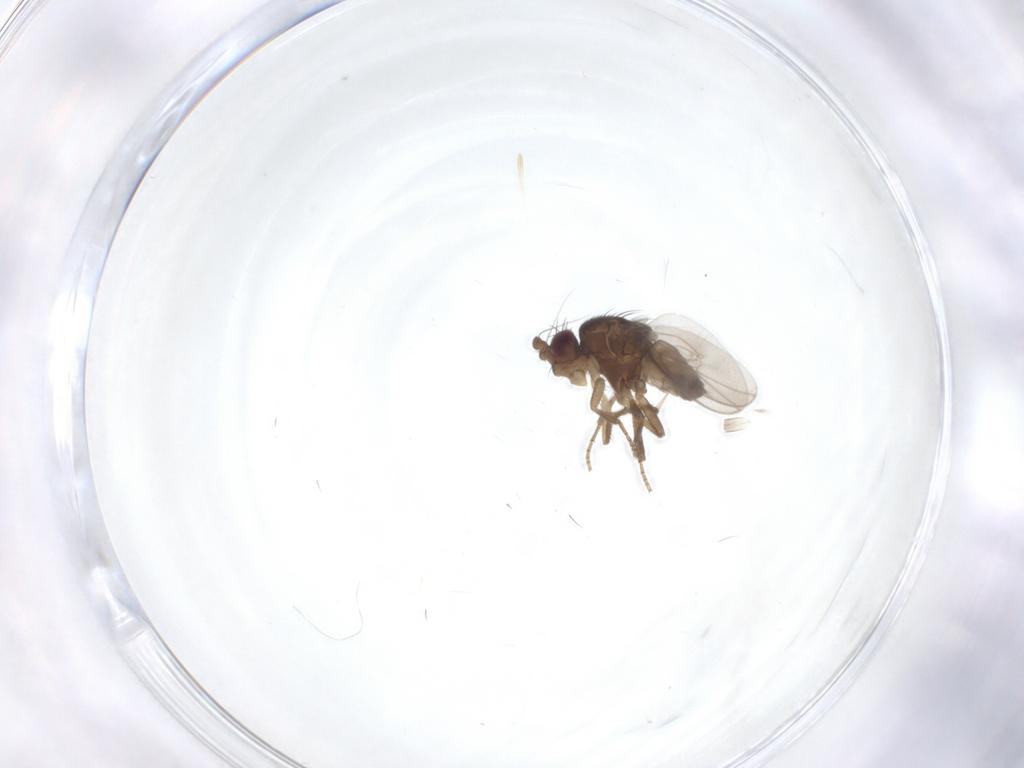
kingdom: Animalia
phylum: Arthropoda
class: Insecta
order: Diptera
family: Sphaeroceridae
